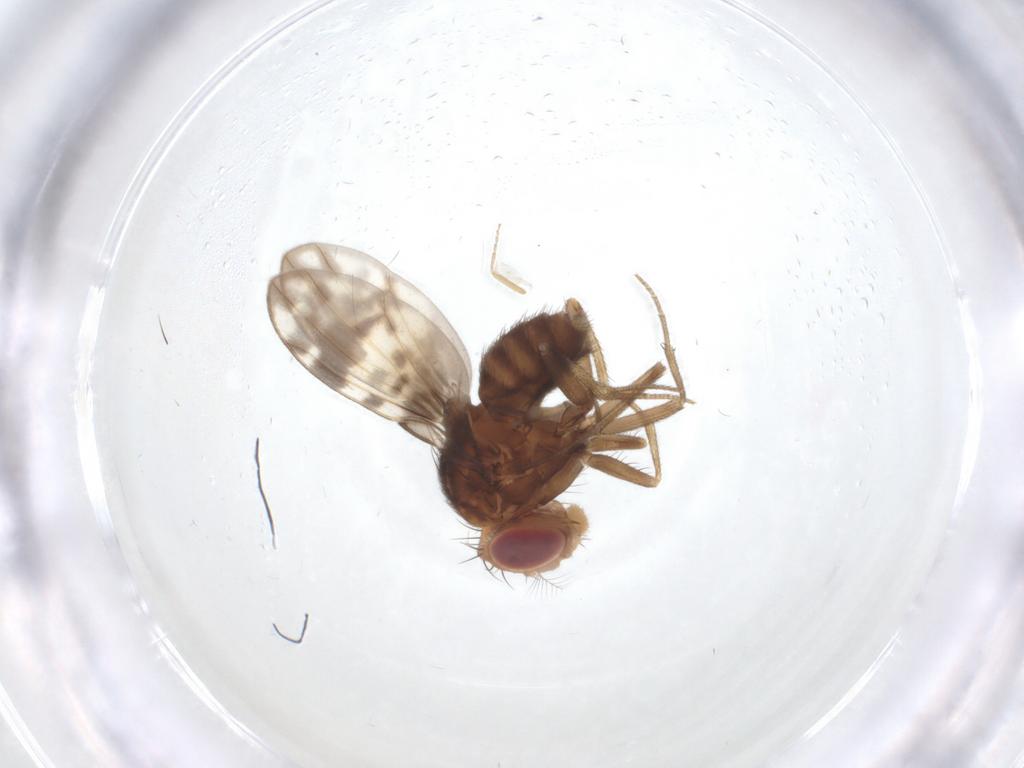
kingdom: Animalia
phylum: Arthropoda
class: Insecta
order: Diptera
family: Drosophilidae
